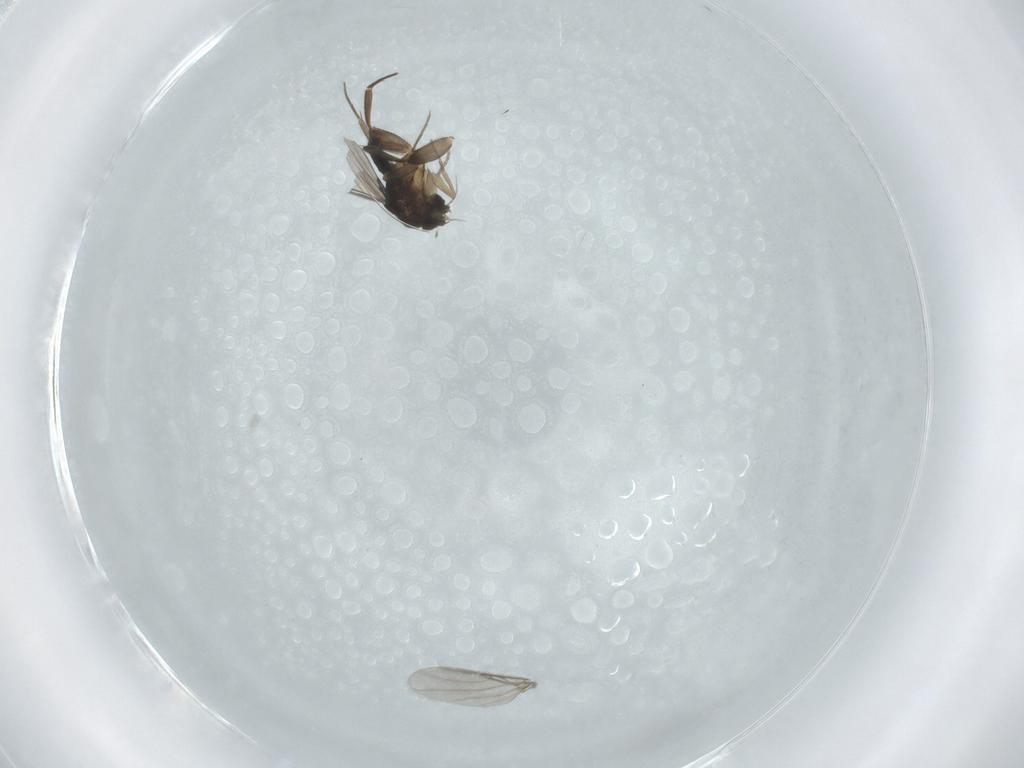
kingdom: Animalia
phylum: Arthropoda
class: Insecta
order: Diptera
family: Phoridae
